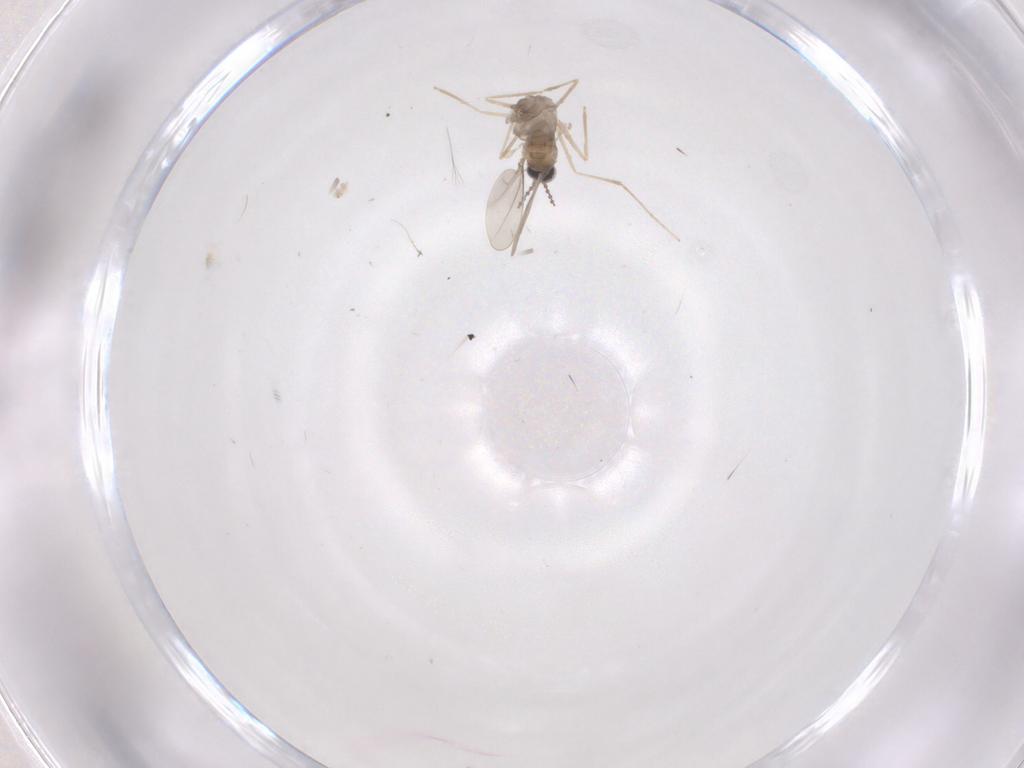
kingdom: Animalia
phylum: Arthropoda
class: Insecta
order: Diptera
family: Cecidomyiidae
